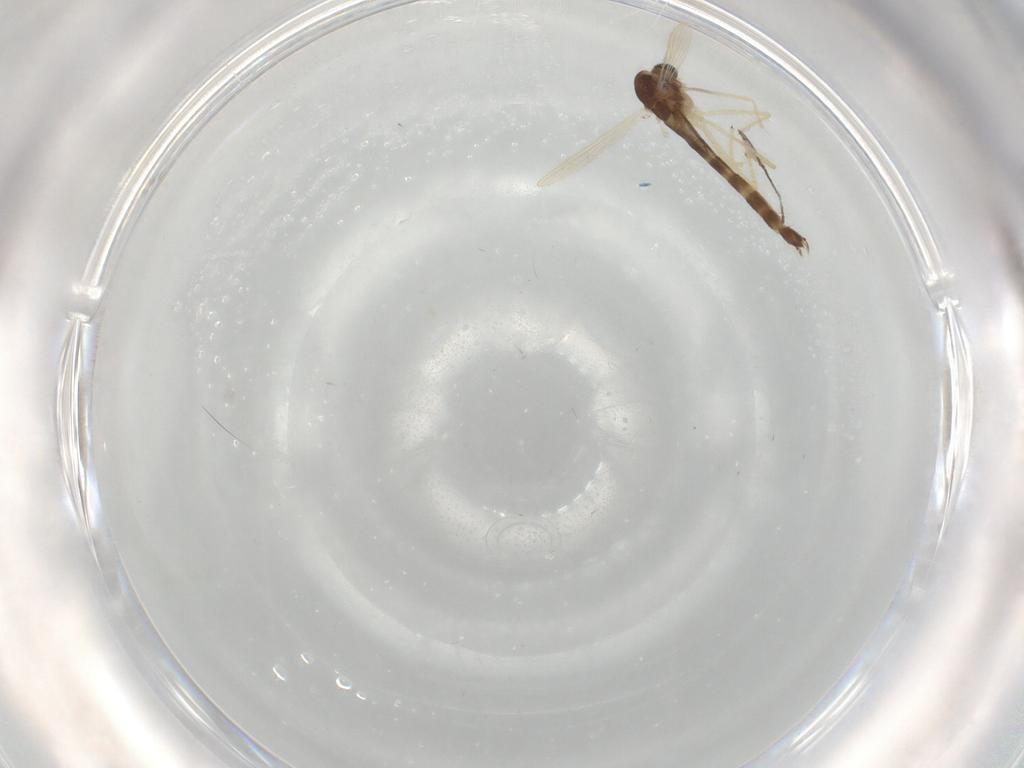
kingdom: Animalia
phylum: Arthropoda
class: Insecta
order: Diptera
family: Chironomidae
